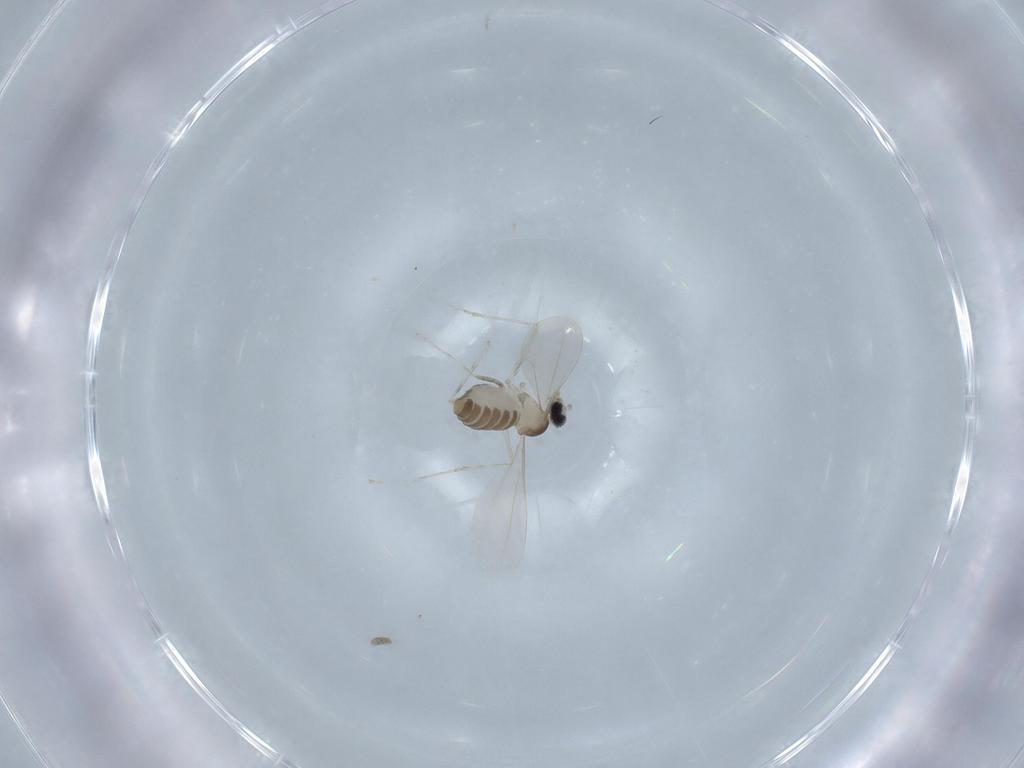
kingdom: Animalia
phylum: Arthropoda
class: Insecta
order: Diptera
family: Cecidomyiidae
